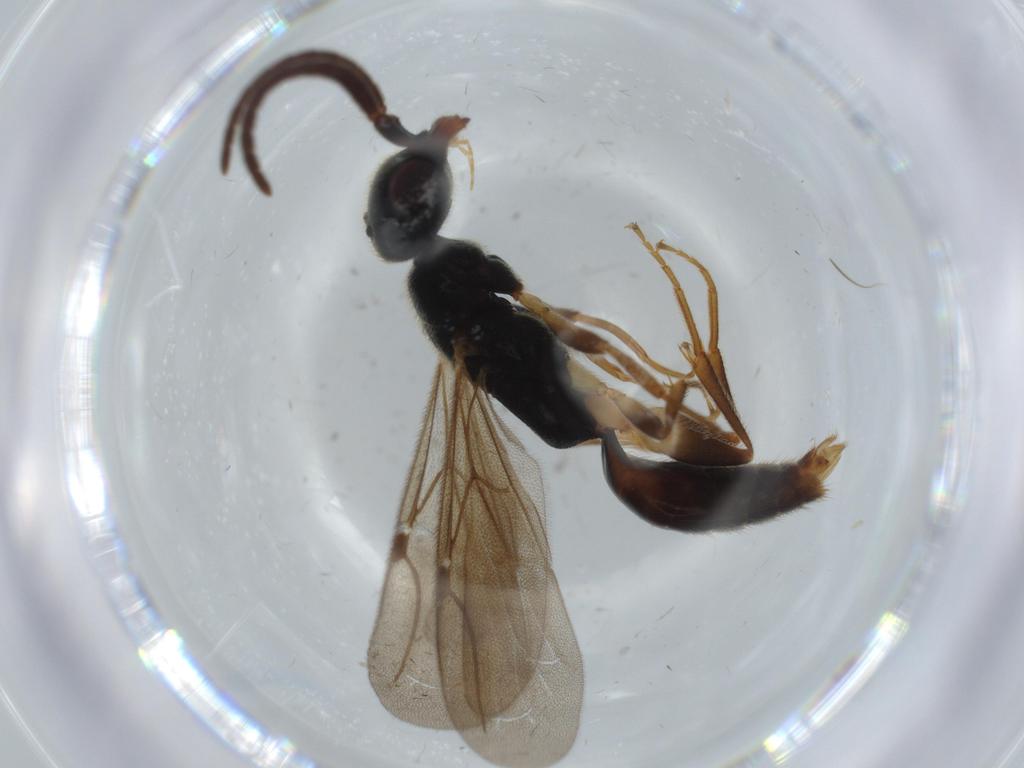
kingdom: Animalia
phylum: Arthropoda
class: Insecta
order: Hymenoptera
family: Bethylidae
